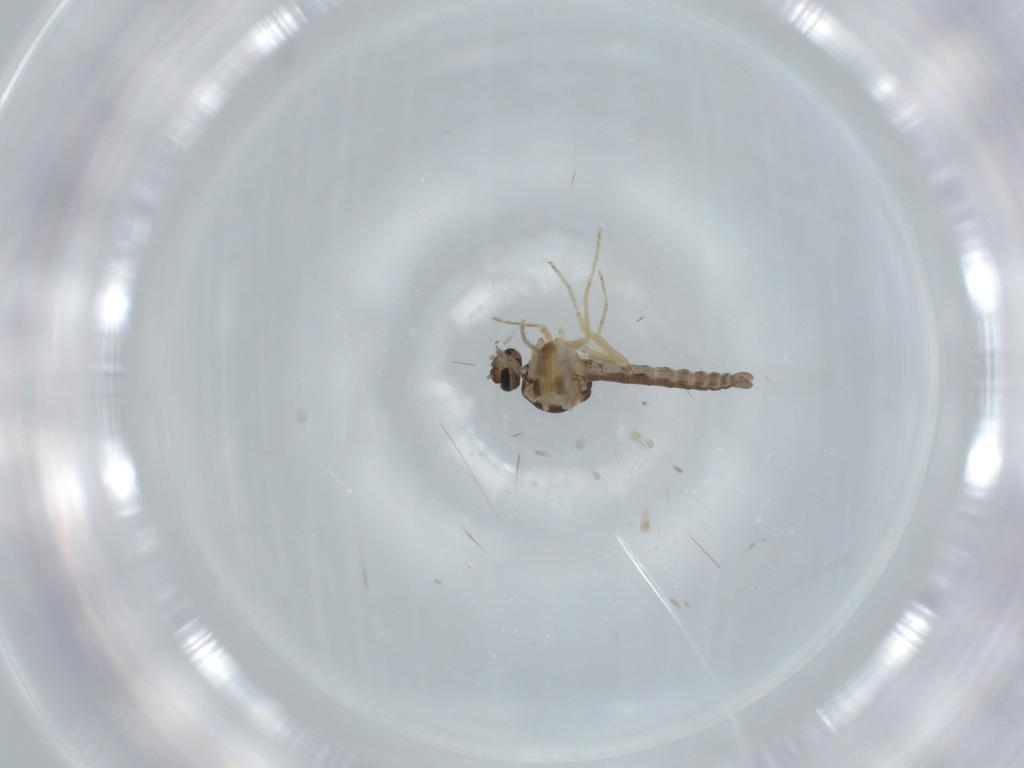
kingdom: Animalia
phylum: Arthropoda
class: Insecta
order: Diptera
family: Ceratopogonidae
